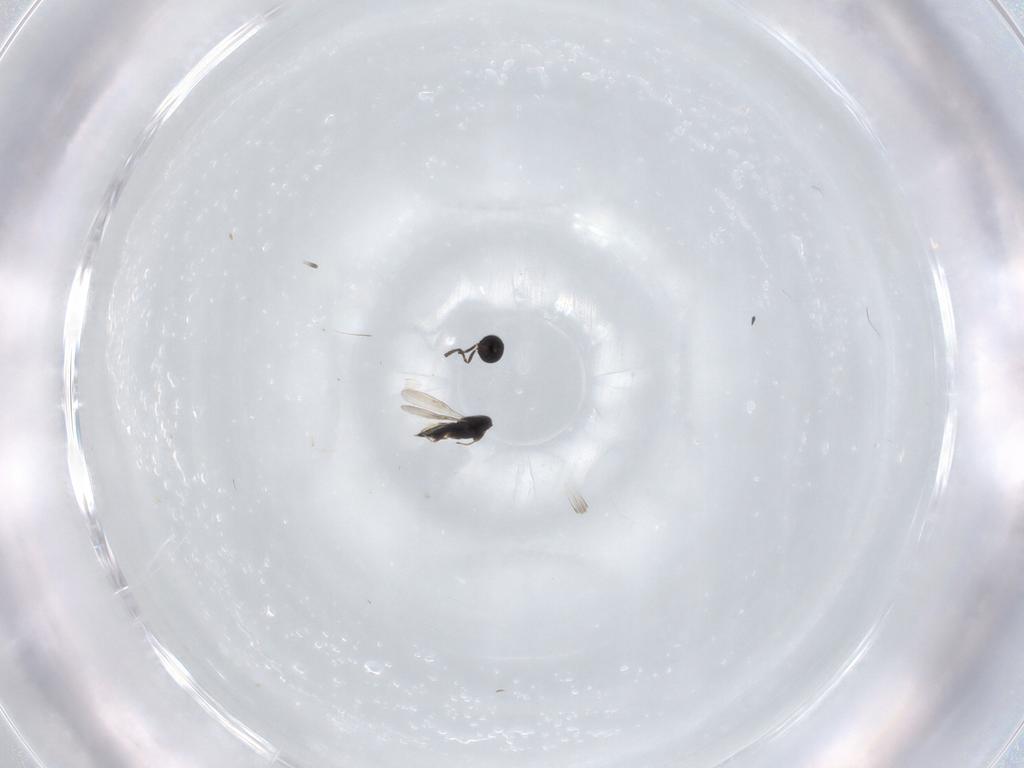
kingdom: Animalia
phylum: Arthropoda
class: Insecta
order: Hymenoptera
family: Scelionidae
